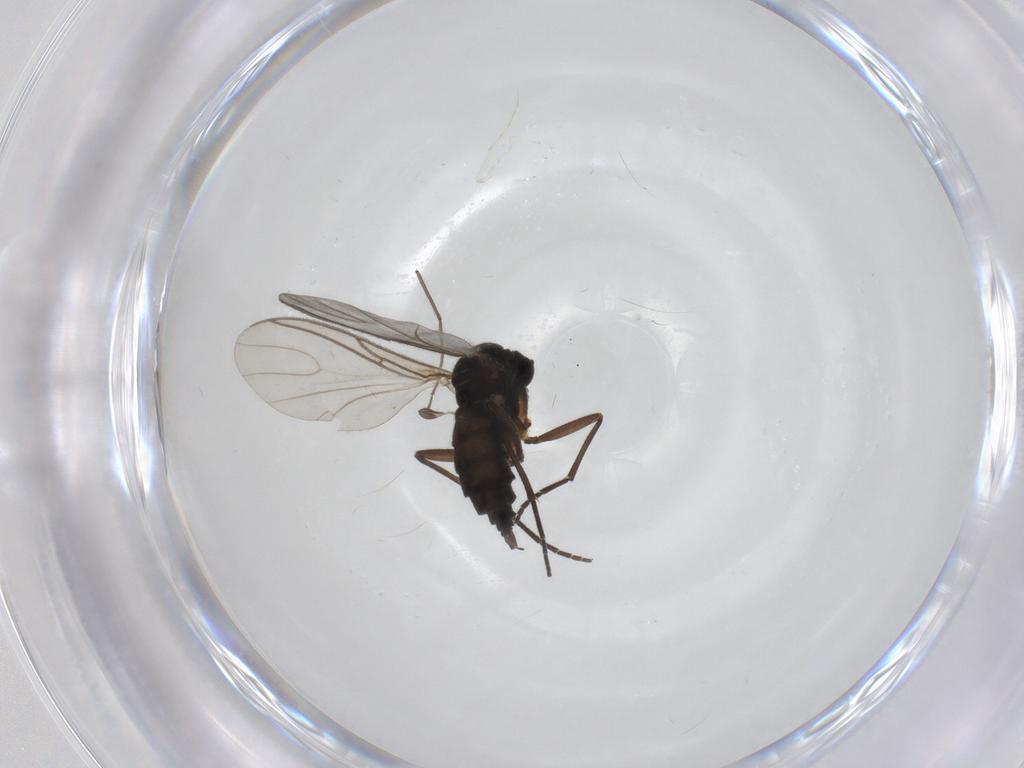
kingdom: Animalia
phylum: Arthropoda
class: Insecta
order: Diptera
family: Sciaridae
